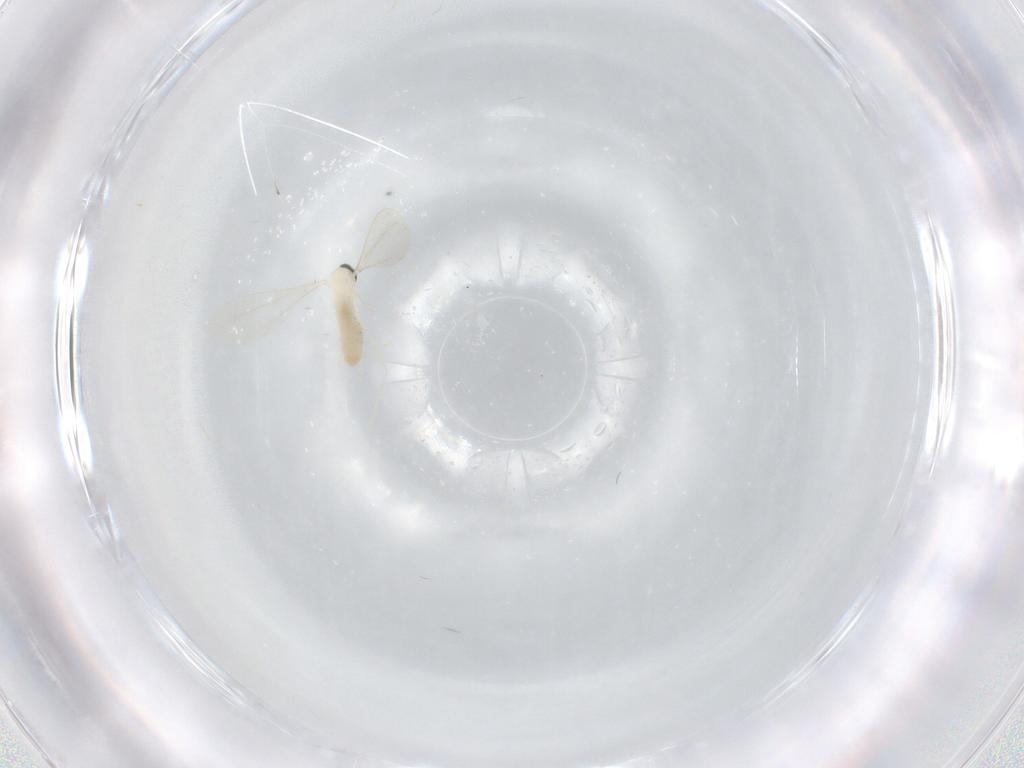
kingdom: Animalia
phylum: Arthropoda
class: Insecta
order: Diptera
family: Cecidomyiidae
